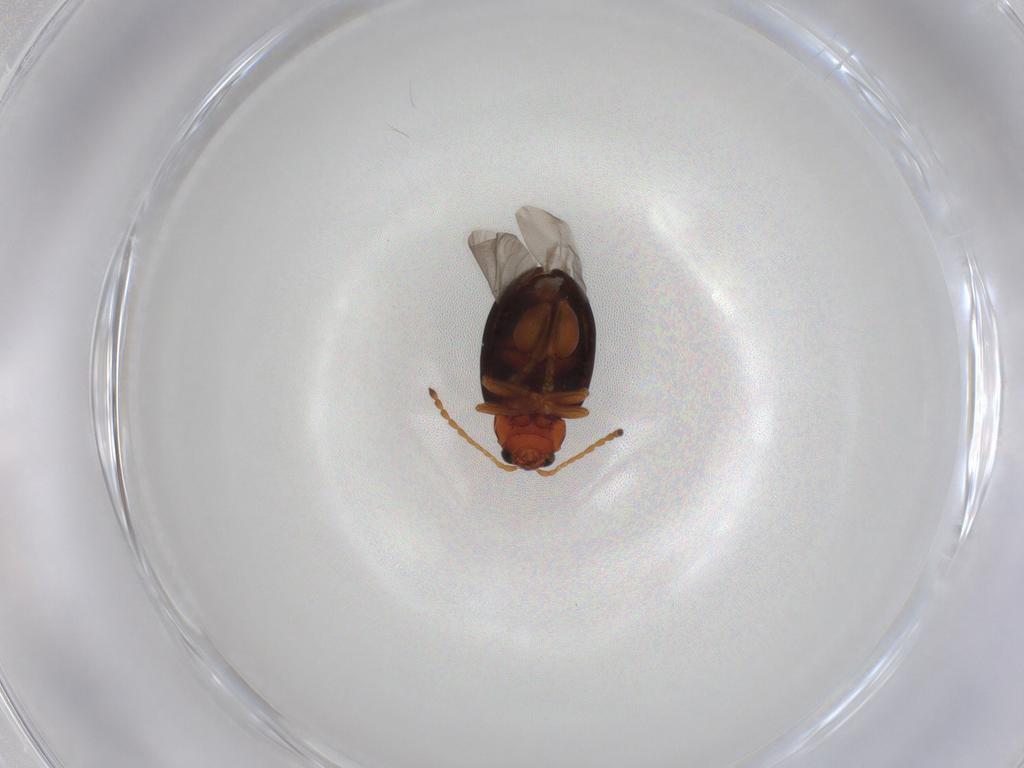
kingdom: Animalia
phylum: Arthropoda
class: Insecta
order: Coleoptera
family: Chrysomelidae
